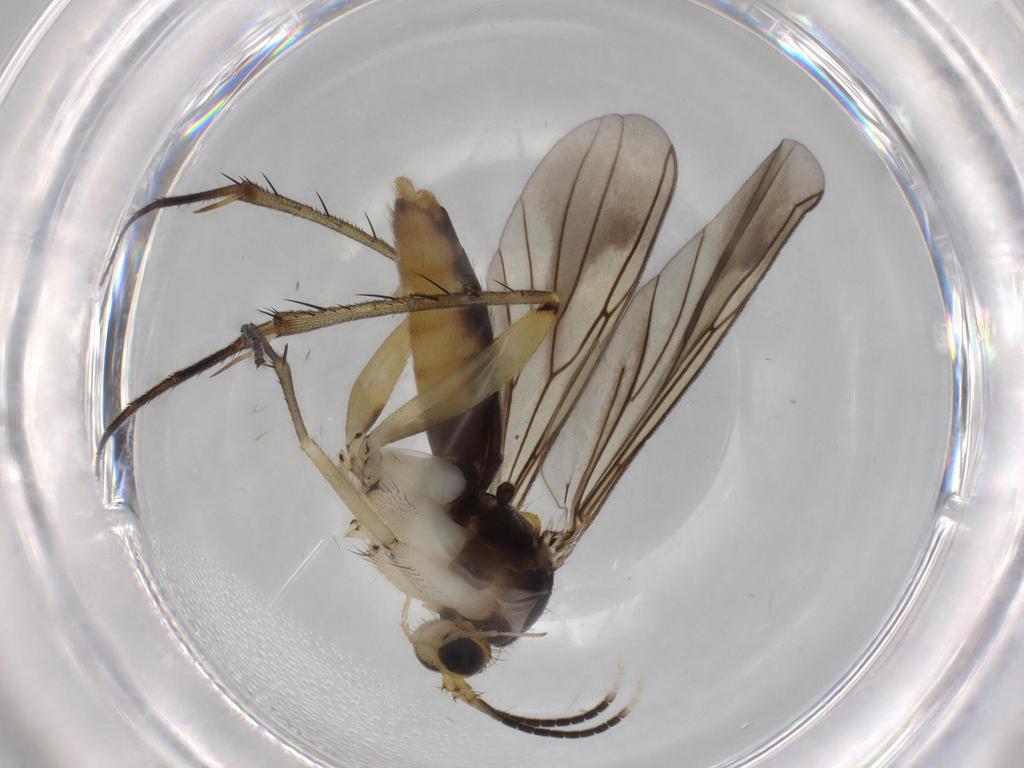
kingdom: Animalia
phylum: Arthropoda
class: Insecta
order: Diptera
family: Phoridae
